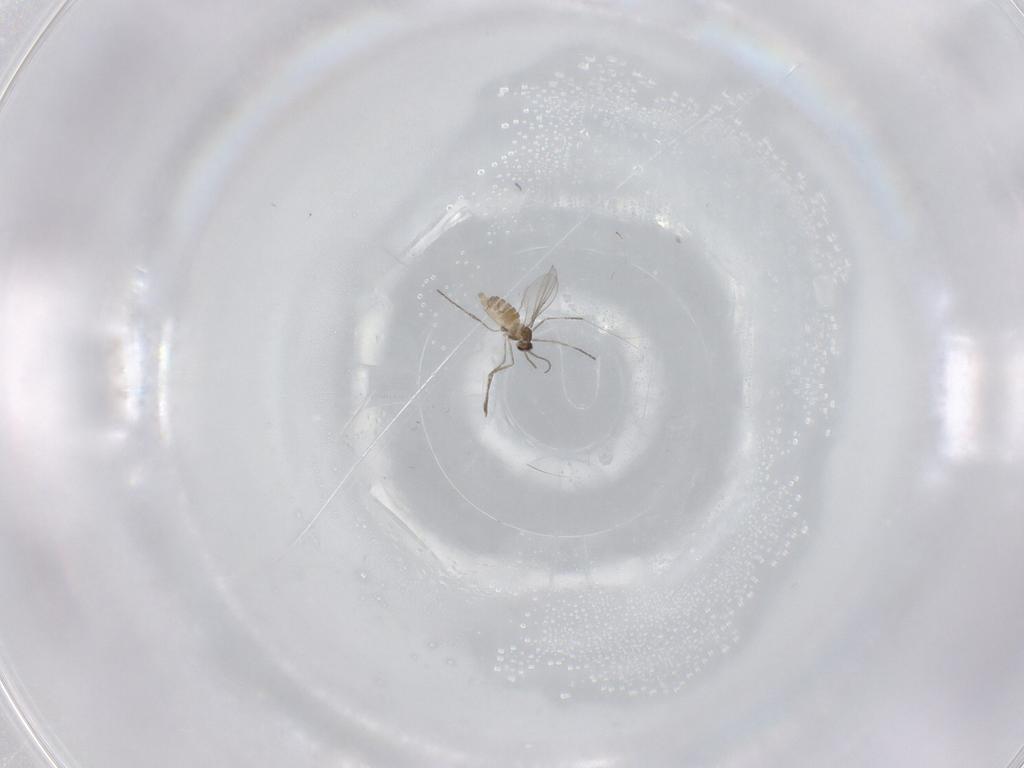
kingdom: Animalia
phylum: Arthropoda
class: Insecta
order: Diptera
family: Cecidomyiidae
